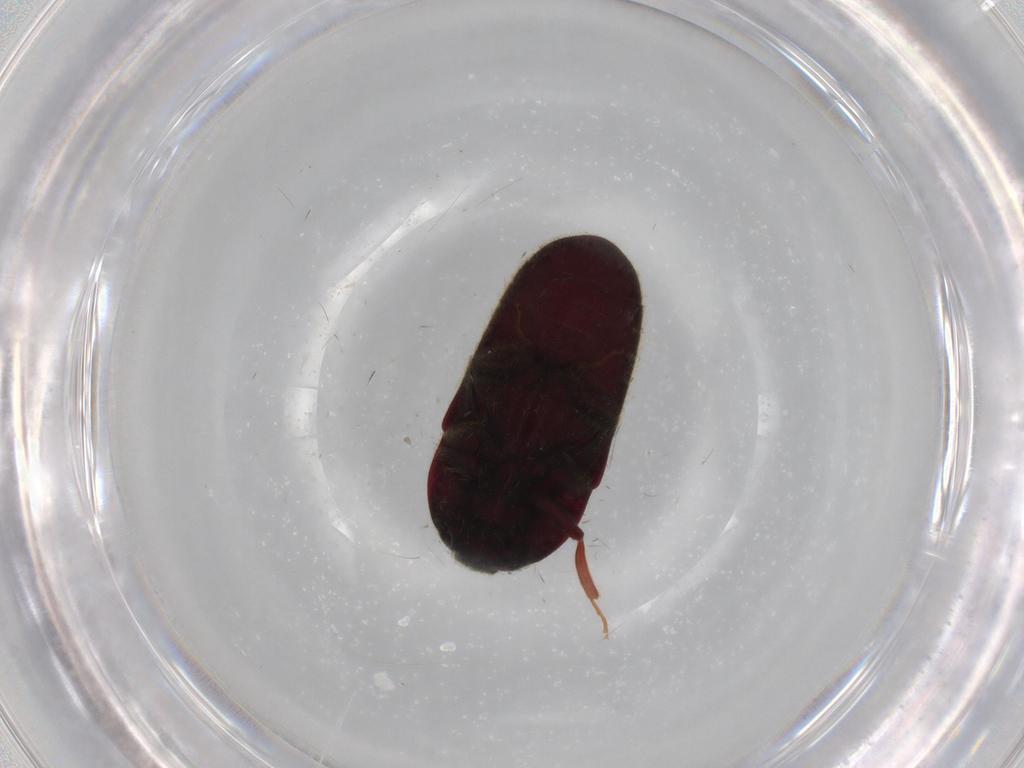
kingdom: Animalia
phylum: Arthropoda
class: Insecta
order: Coleoptera
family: Throscidae
